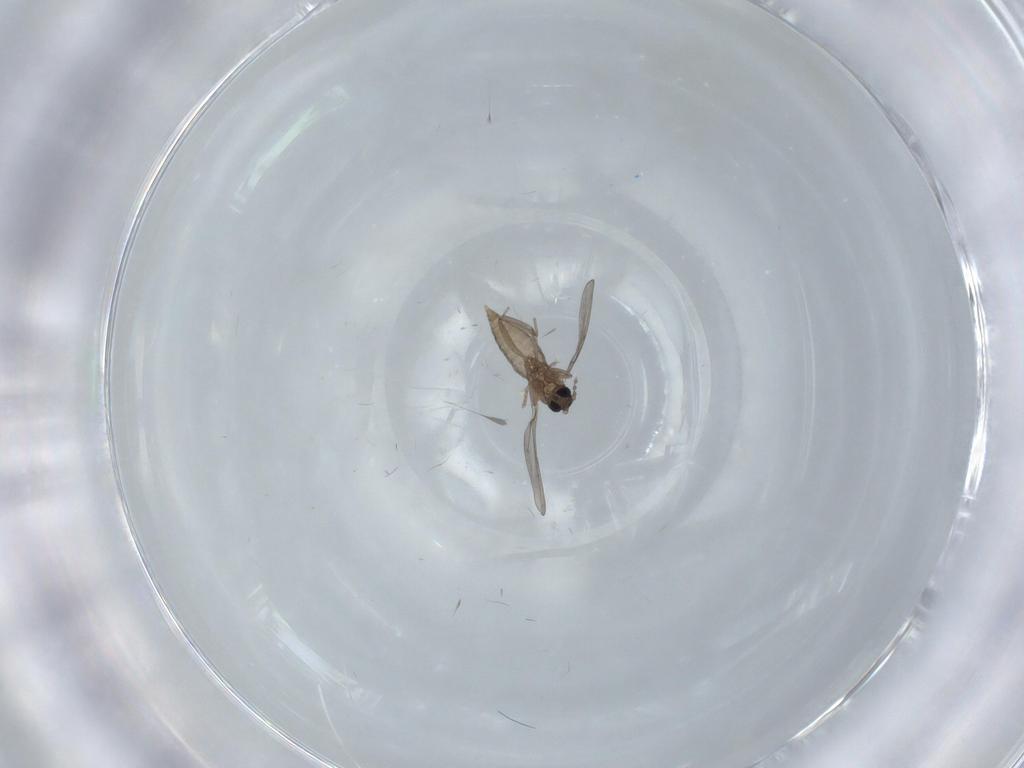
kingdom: Animalia
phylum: Arthropoda
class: Insecta
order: Diptera
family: Cecidomyiidae
